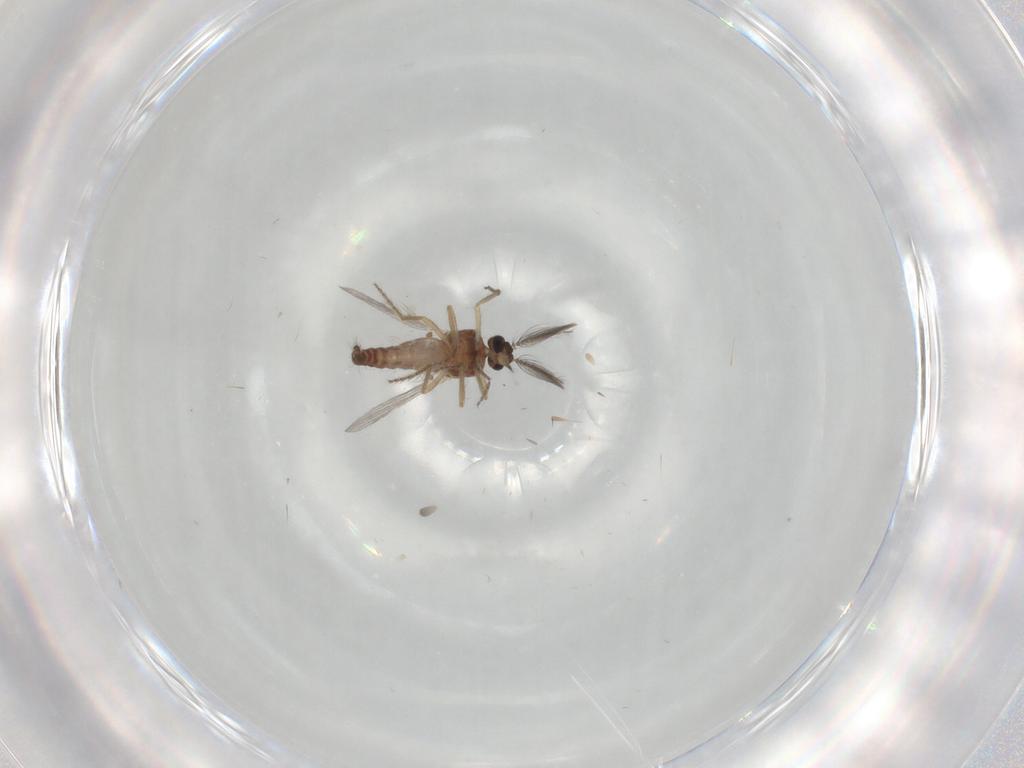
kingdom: Animalia
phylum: Arthropoda
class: Insecta
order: Diptera
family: Ceratopogonidae
